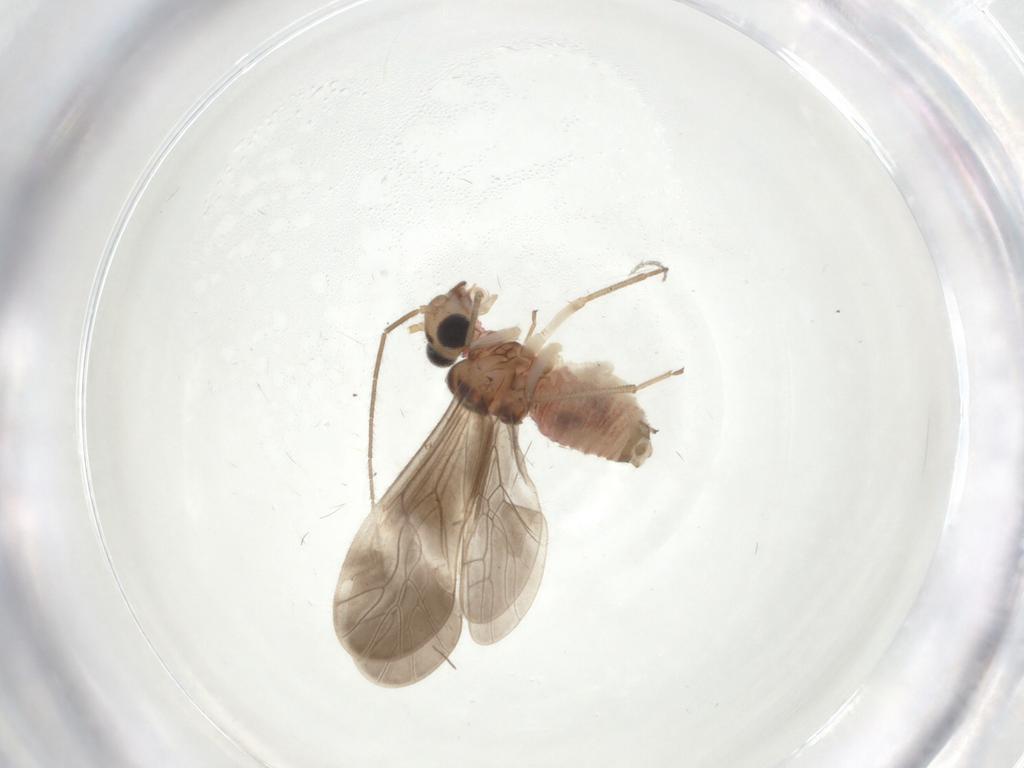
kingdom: Animalia
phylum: Arthropoda
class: Insecta
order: Psocodea
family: Caeciliusidae
